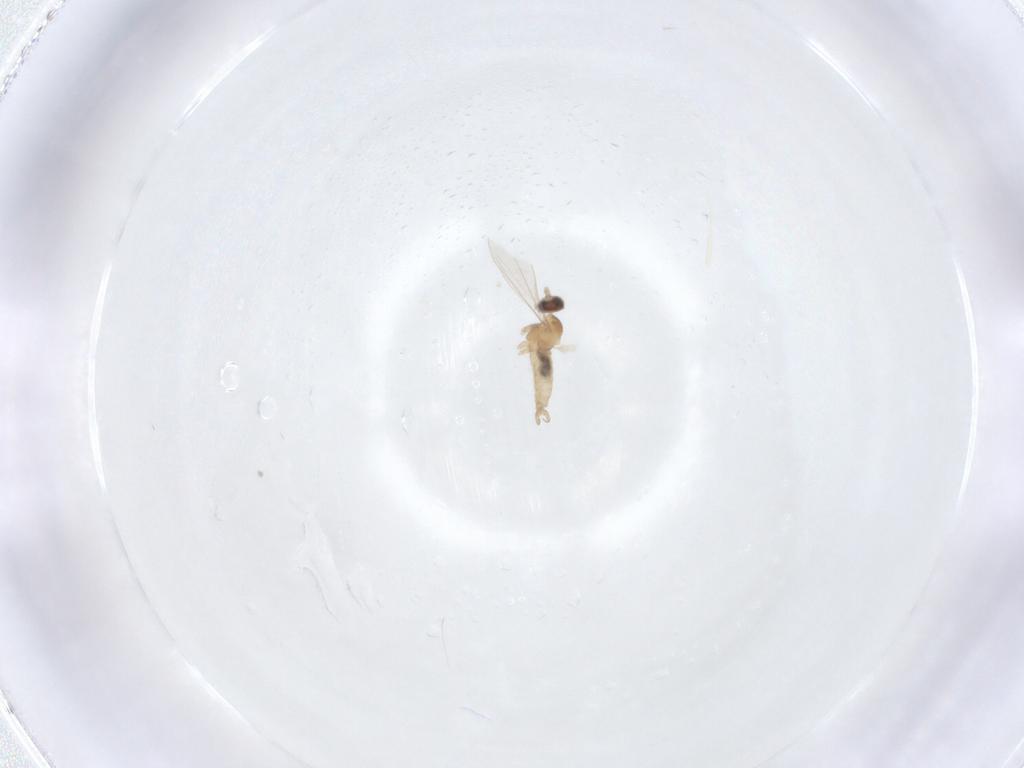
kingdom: Animalia
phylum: Arthropoda
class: Insecta
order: Diptera
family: Cecidomyiidae
